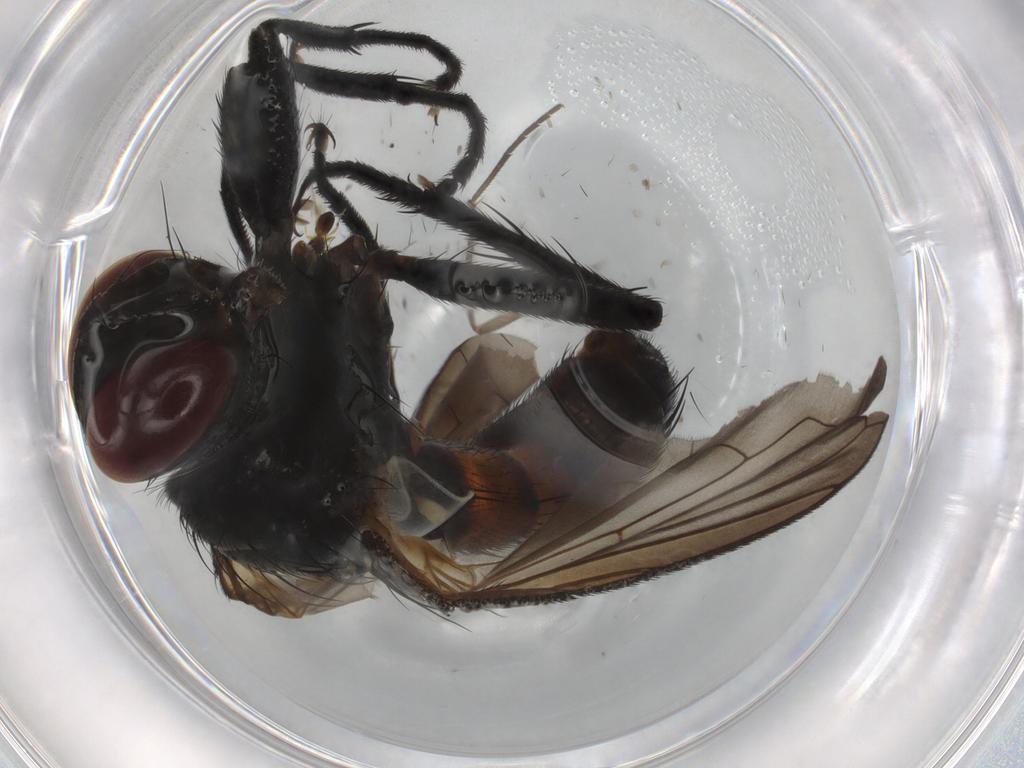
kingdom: Animalia
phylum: Arthropoda
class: Insecta
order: Diptera
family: Tachinidae
